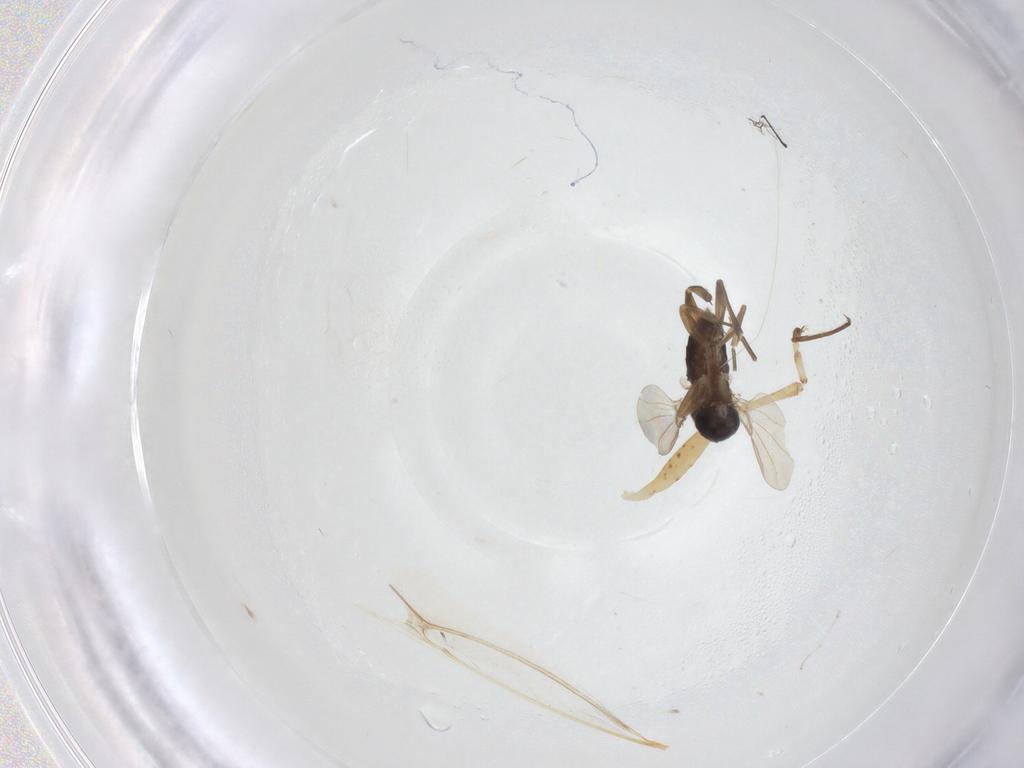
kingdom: Animalia
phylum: Arthropoda
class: Insecta
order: Diptera
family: Phoridae
